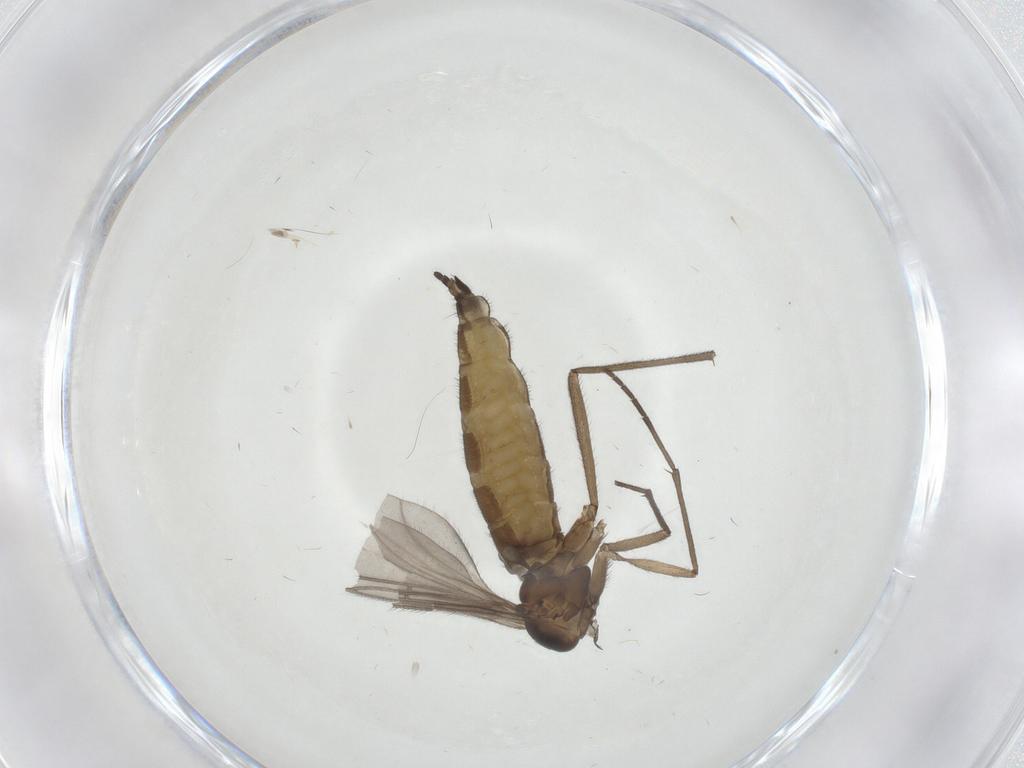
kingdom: Animalia
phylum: Arthropoda
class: Insecta
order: Diptera
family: Sciaridae
